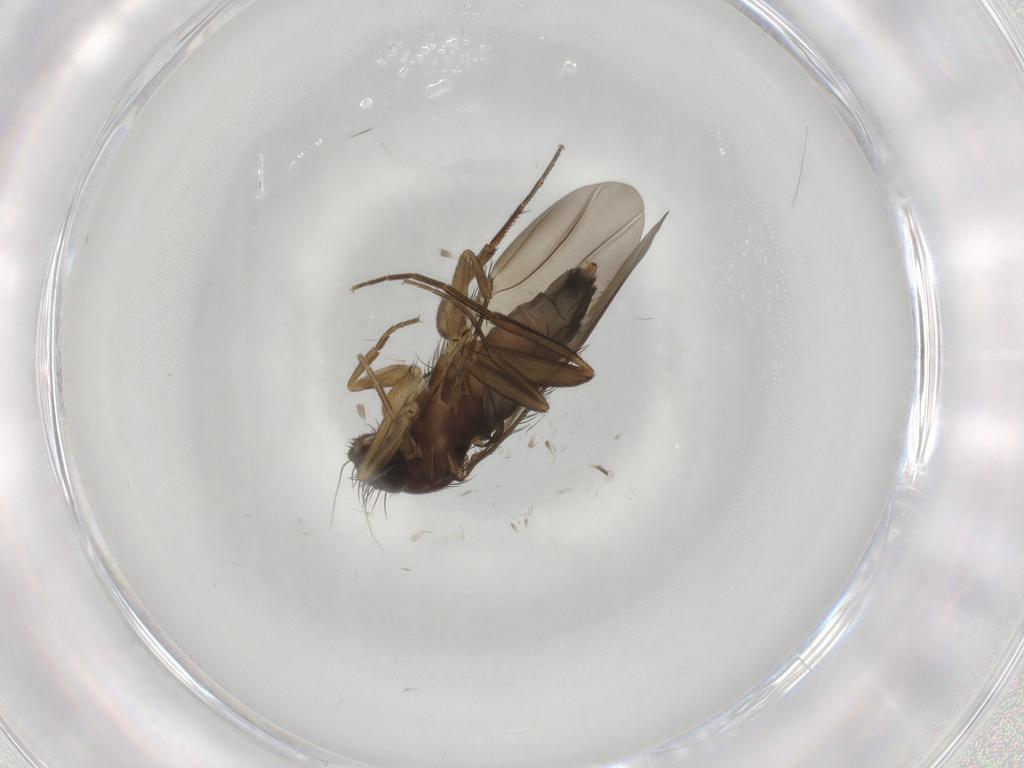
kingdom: Animalia
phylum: Arthropoda
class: Insecta
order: Diptera
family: Phoridae
